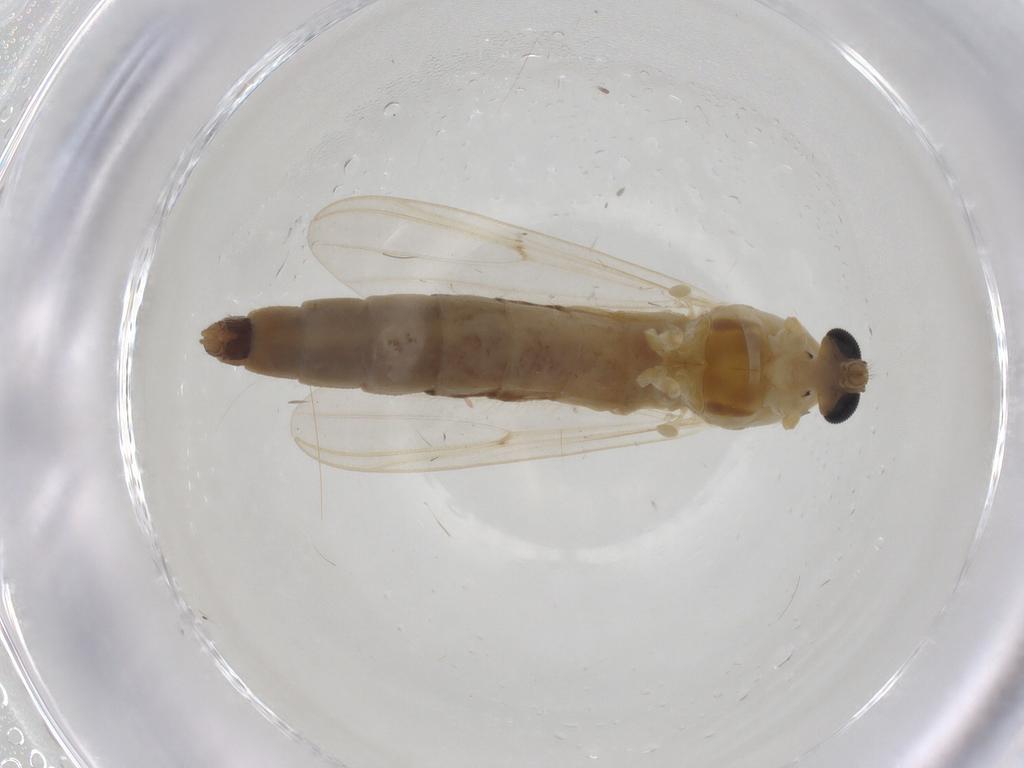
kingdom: Animalia
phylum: Arthropoda
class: Insecta
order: Diptera
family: Chironomidae
